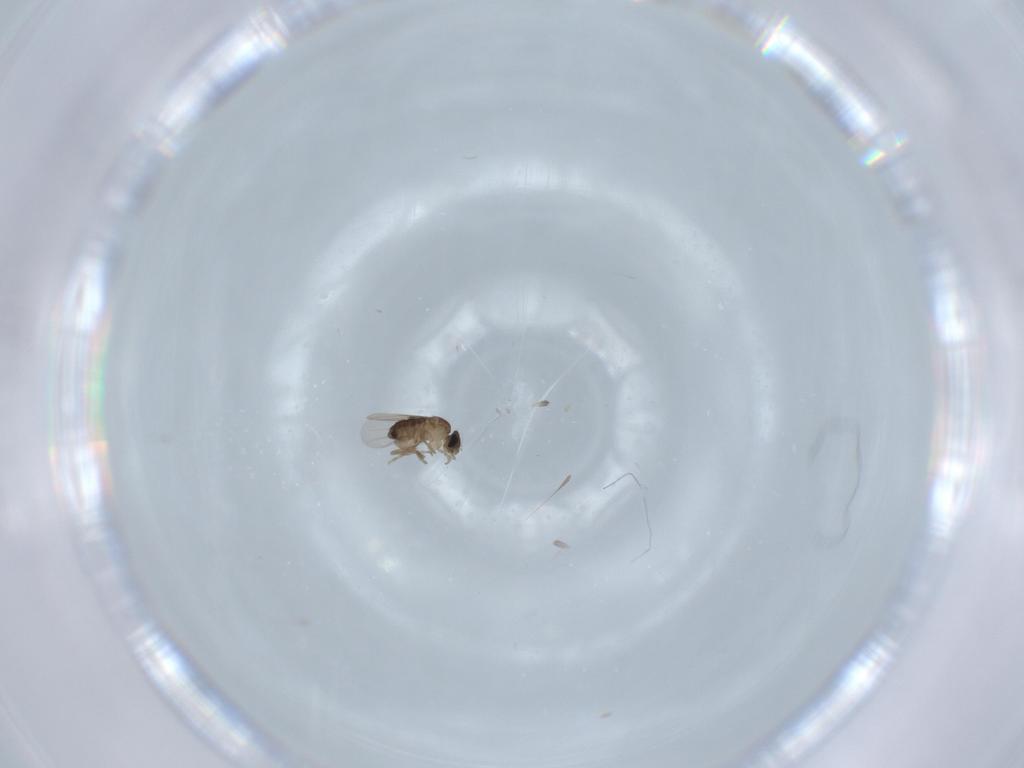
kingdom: Animalia
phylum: Arthropoda
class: Insecta
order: Diptera
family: Phoridae
